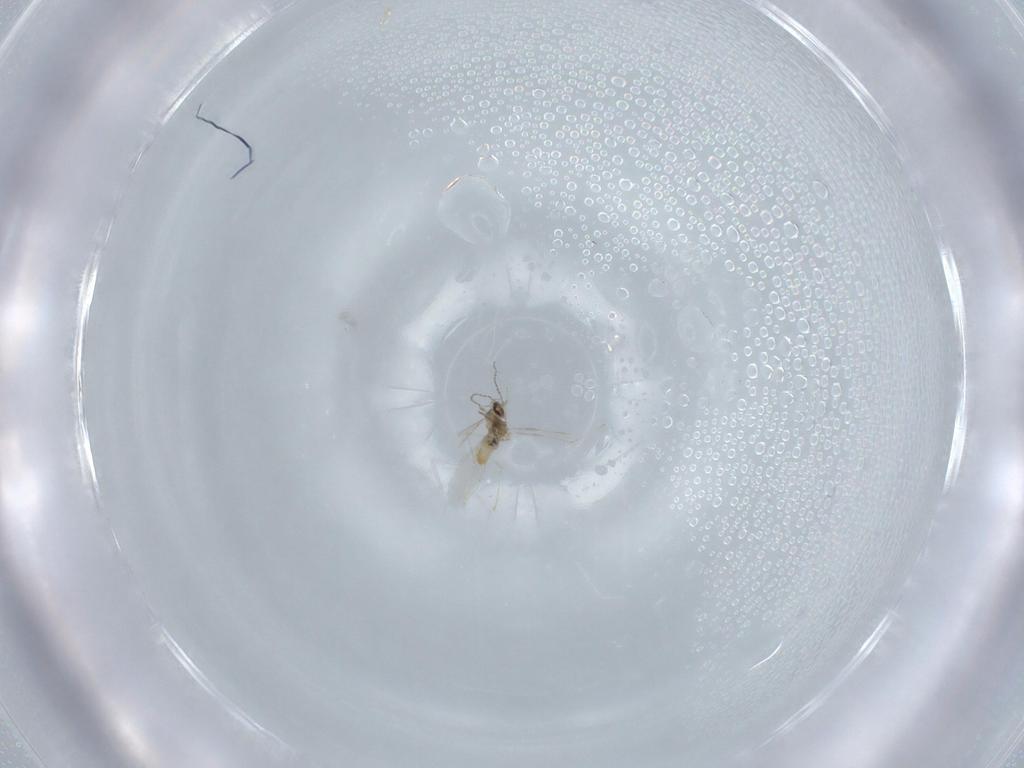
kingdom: Animalia
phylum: Arthropoda
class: Insecta
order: Diptera
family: Cecidomyiidae
